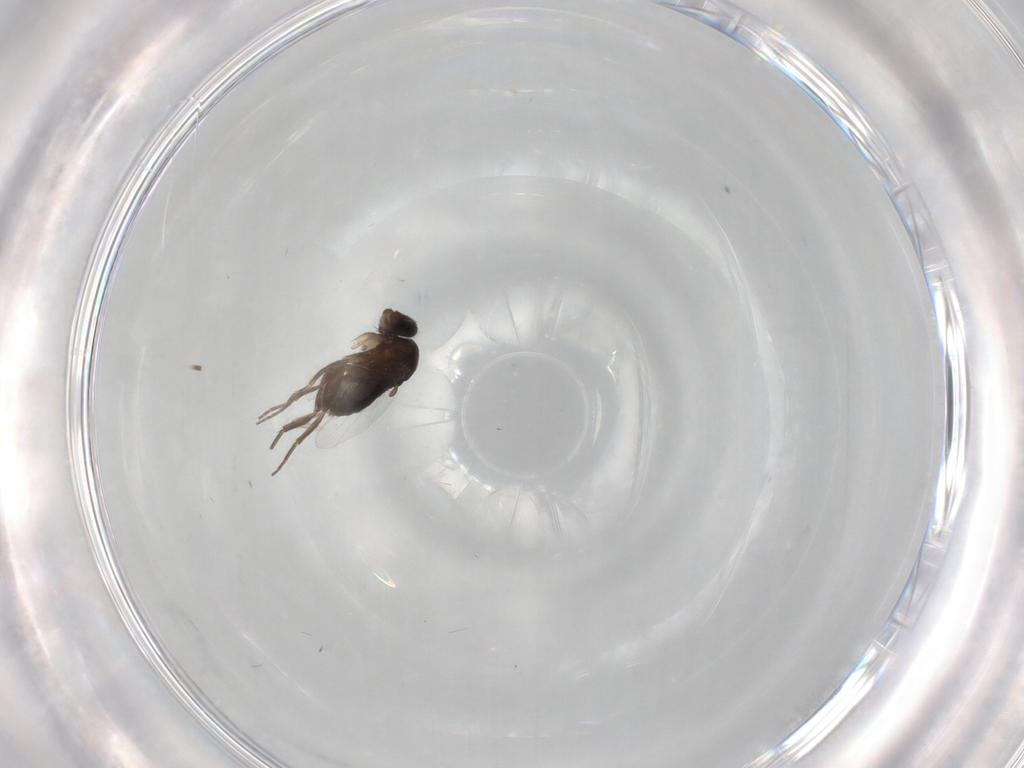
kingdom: Animalia
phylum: Arthropoda
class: Insecta
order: Diptera
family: Phoridae
